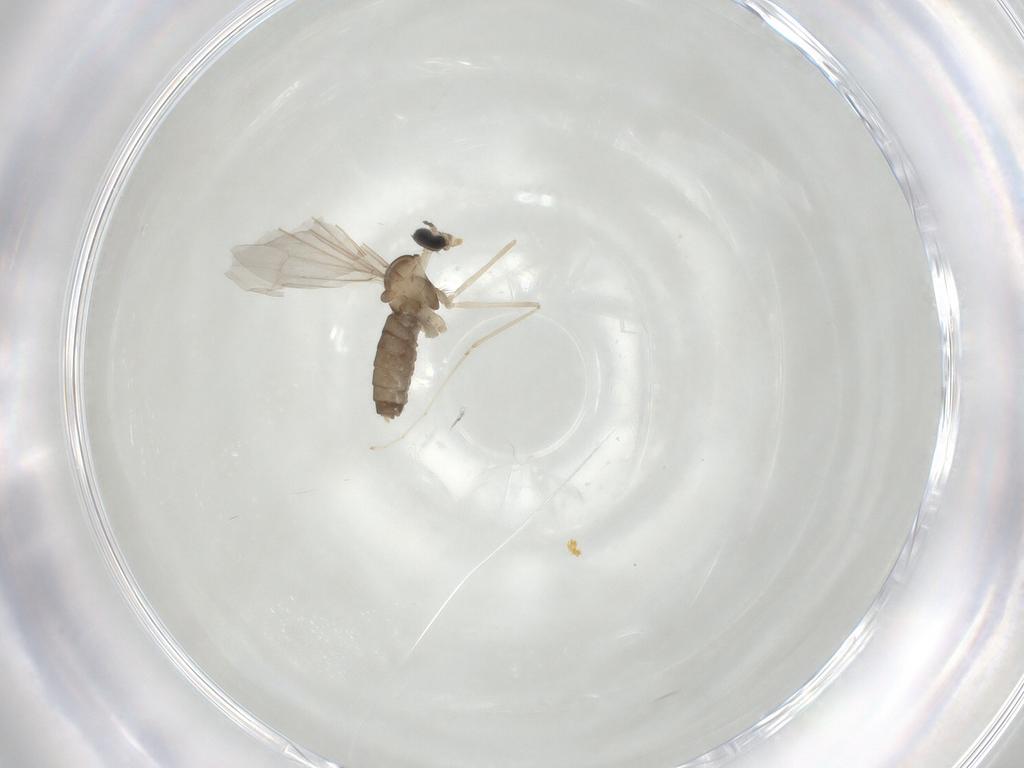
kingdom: Animalia
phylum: Arthropoda
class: Insecta
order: Diptera
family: Cecidomyiidae
